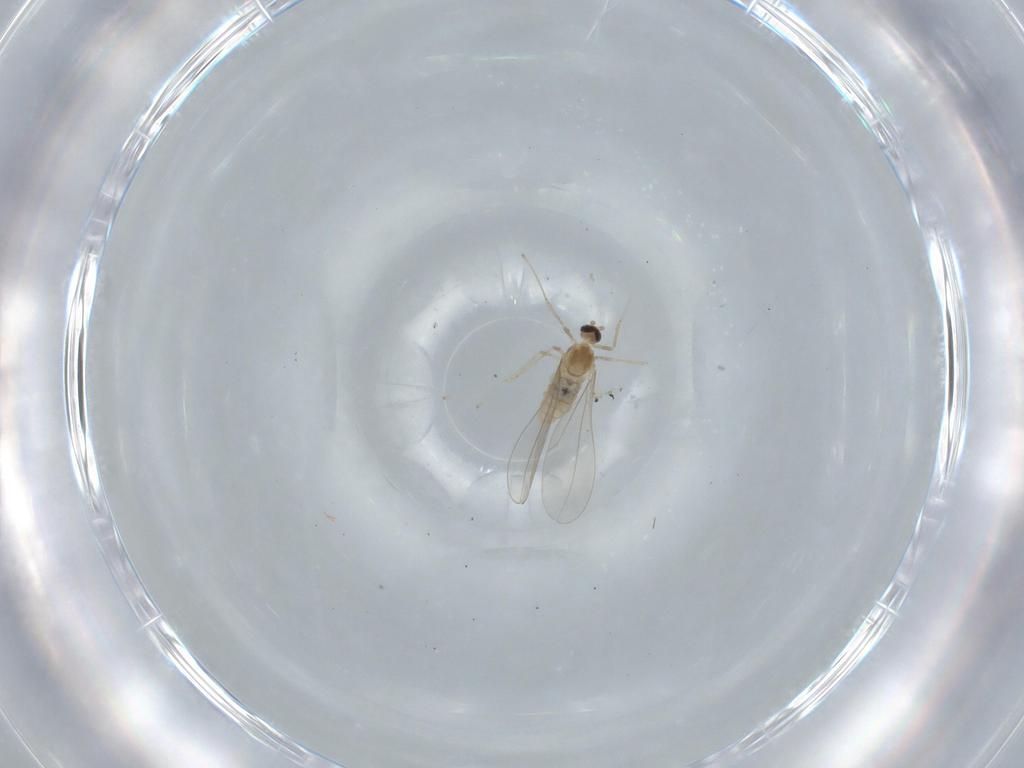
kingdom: Animalia
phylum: Arthropoda
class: Insecta
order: Diptera
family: Cecidomyiidae
